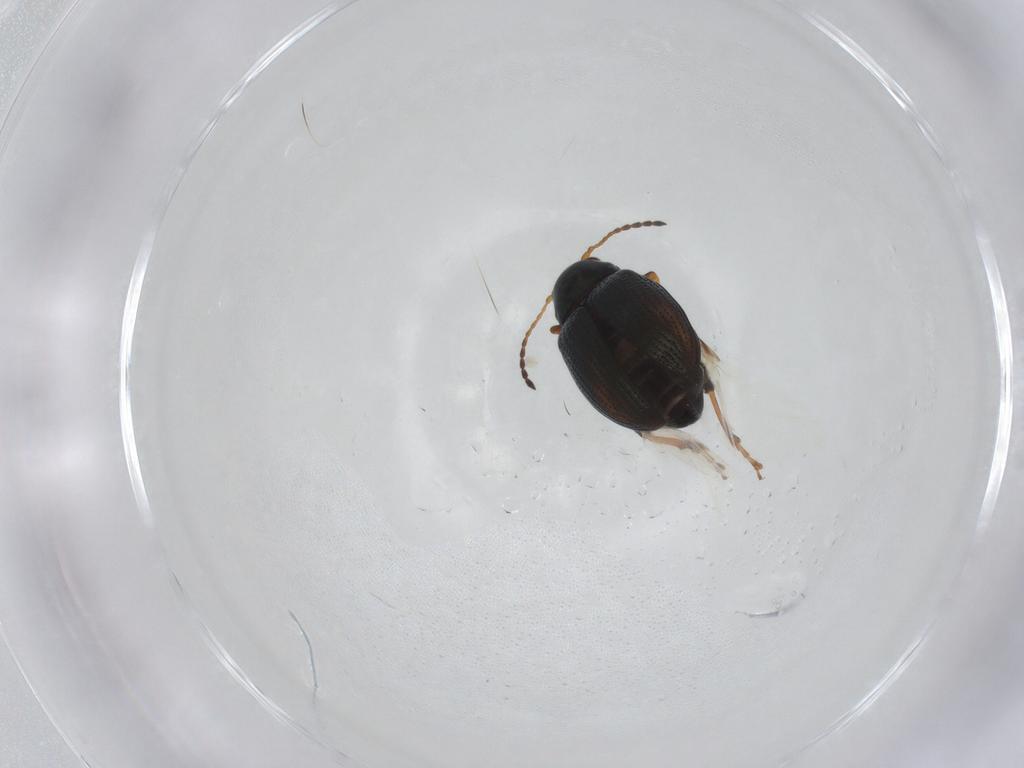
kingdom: Animalia
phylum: Arthropoda
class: Insecta
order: Coleoptera
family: Chrysomelidae
